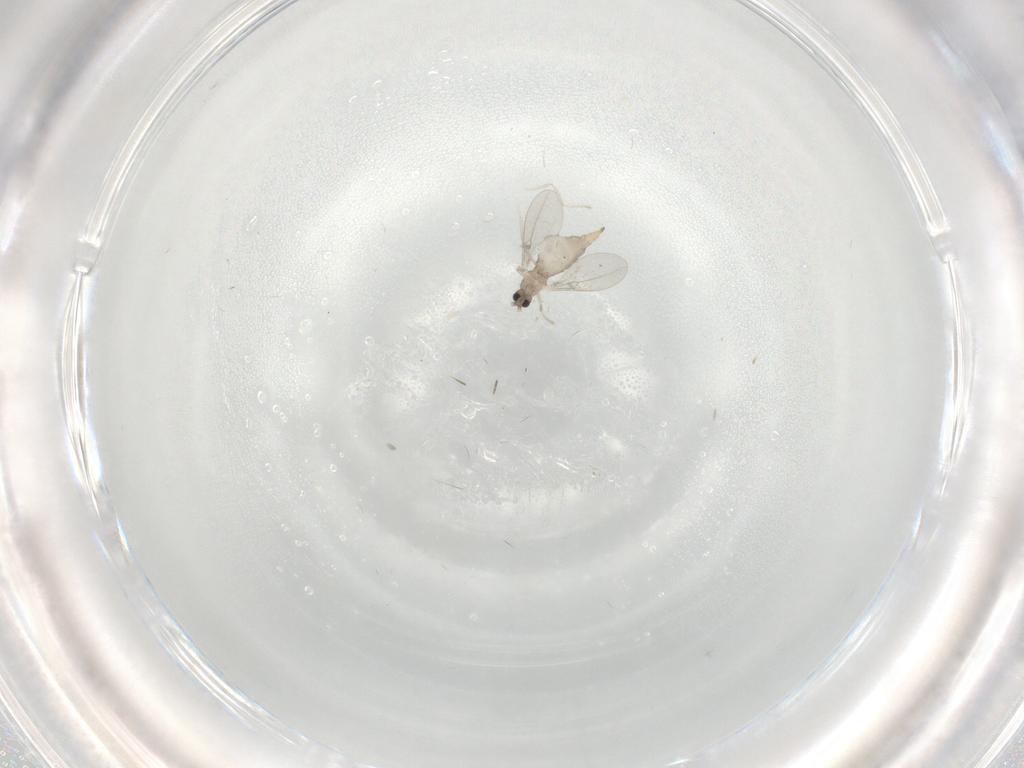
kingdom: Animalia
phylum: Arthropoda
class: Insecta
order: Diptera
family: Cecidomyiidae
